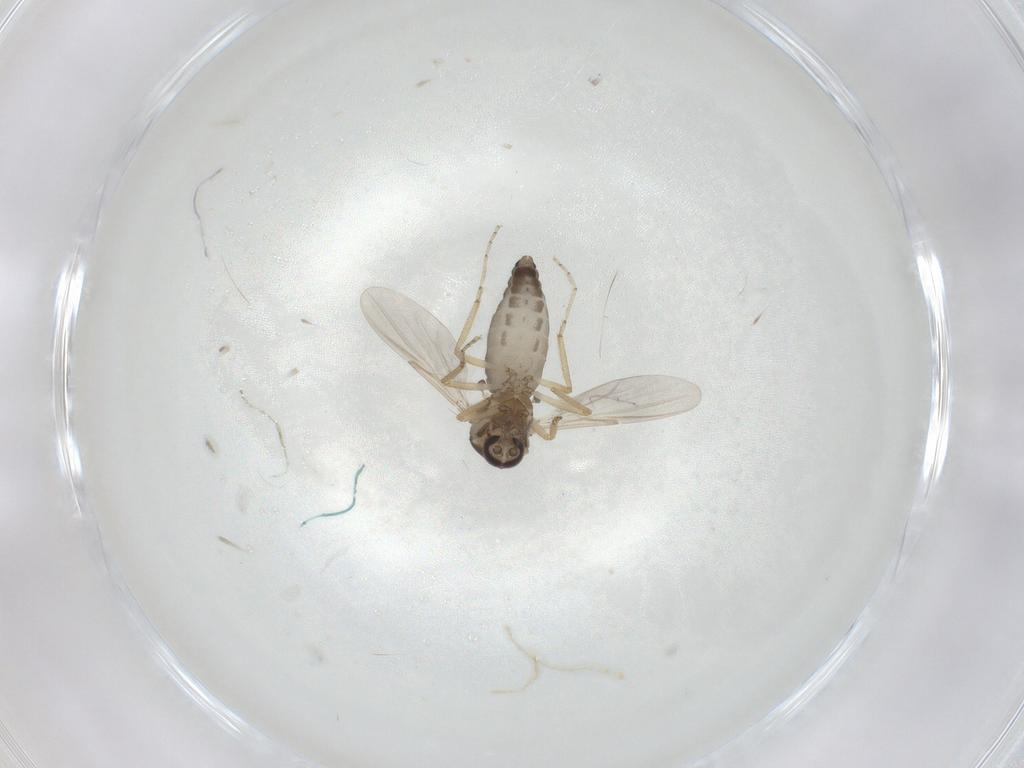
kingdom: Animalia
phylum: Arthropoda
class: Insecta
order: Diptera
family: Ceratopogonidae
